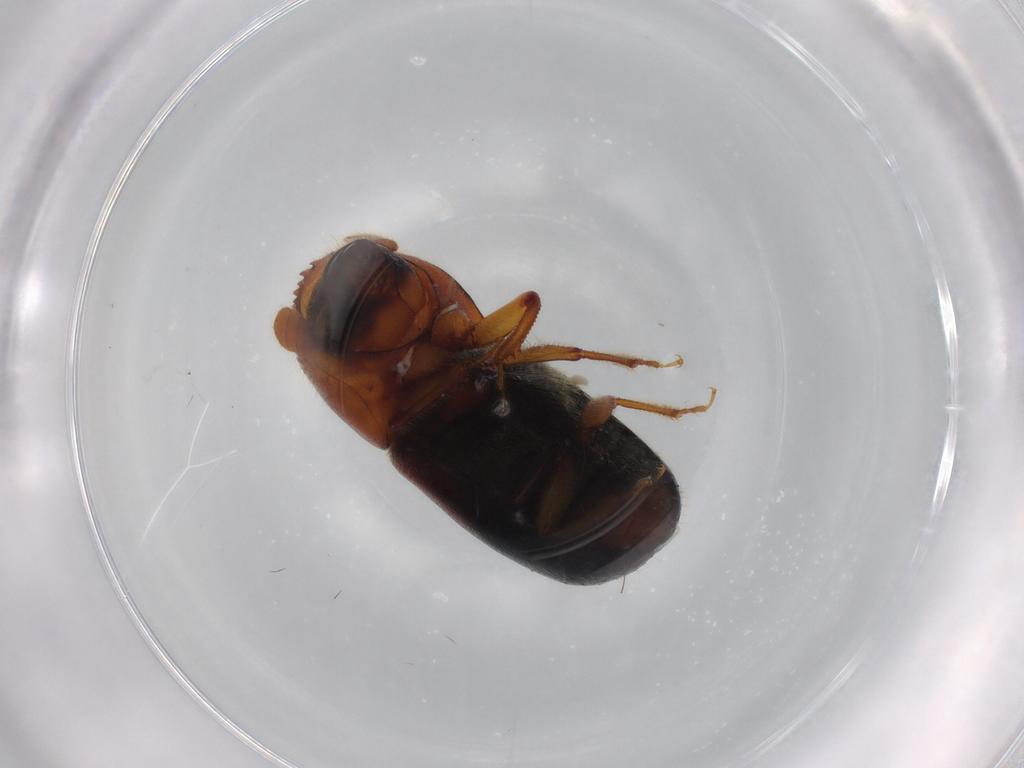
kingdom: Animalia
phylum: Arthropoda
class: Insecta
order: Coleoptera
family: Curculionidae
